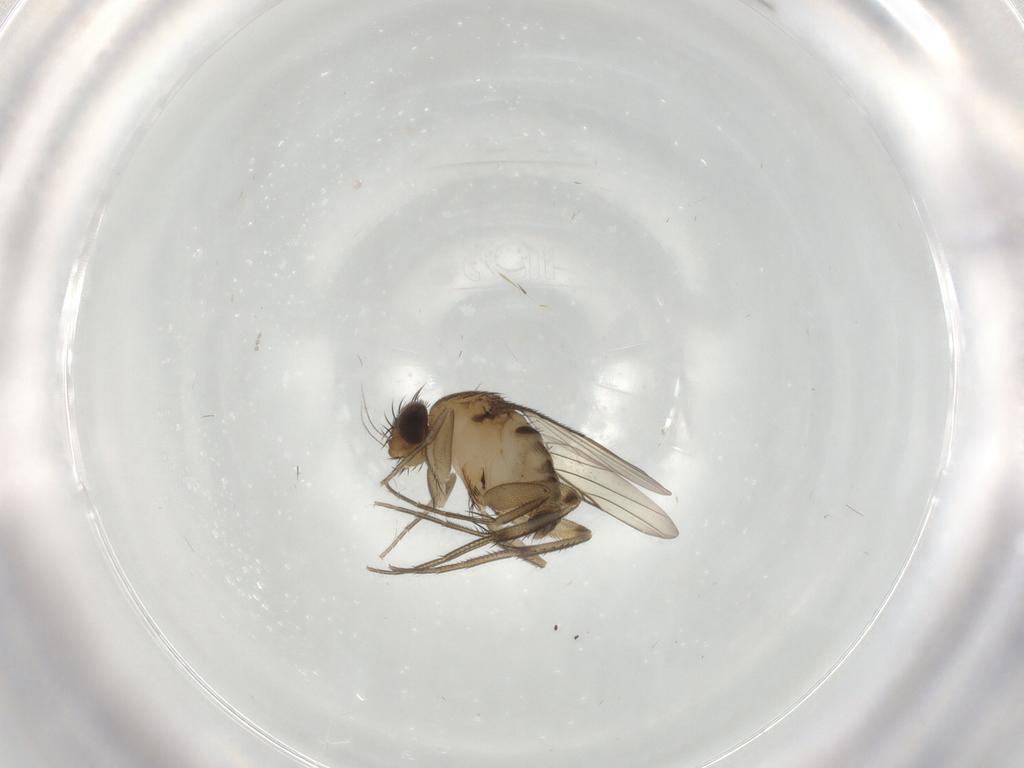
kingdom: Animalia
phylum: Arthropoda
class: Insecta
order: Diptera
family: Phoridae
